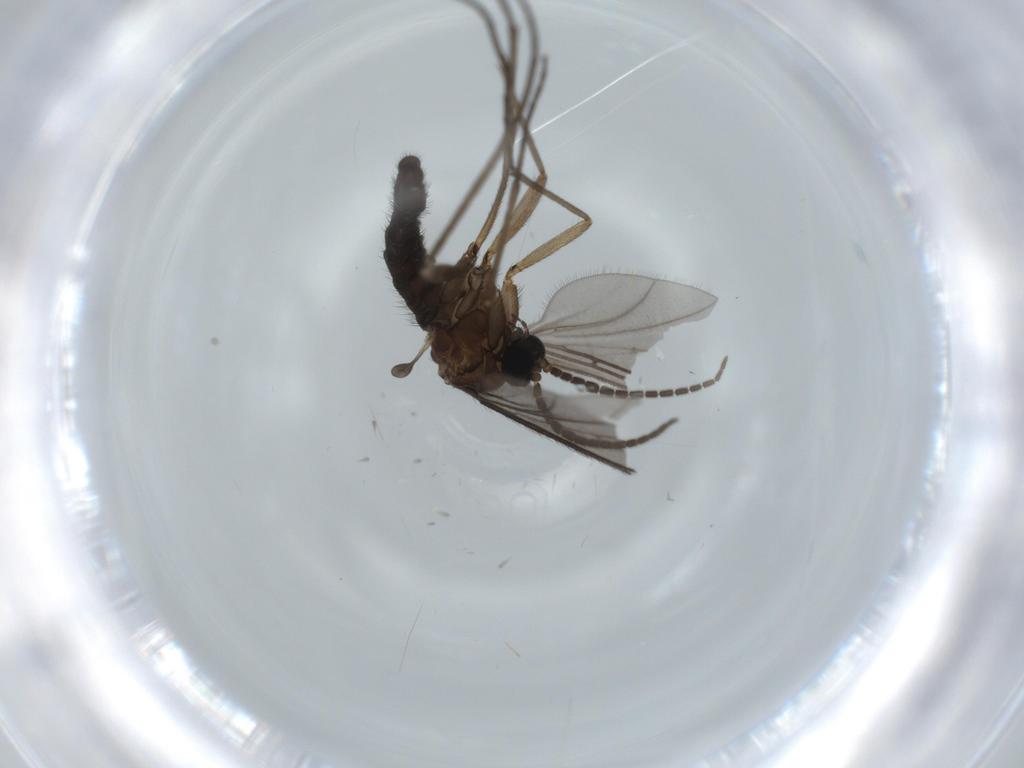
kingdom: Animalia
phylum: Arthropoda
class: Insecta
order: Diptera
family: Sciaridae
